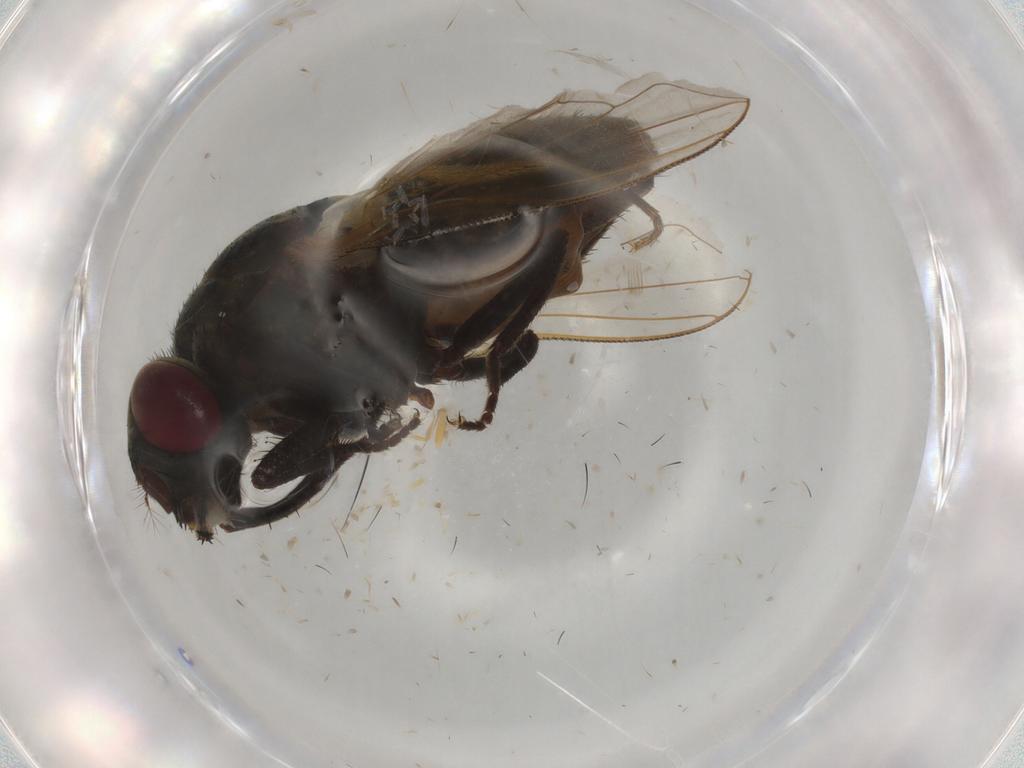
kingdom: Animalia
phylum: Arthropoda
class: Insecta
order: Diptera
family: Muscidae
